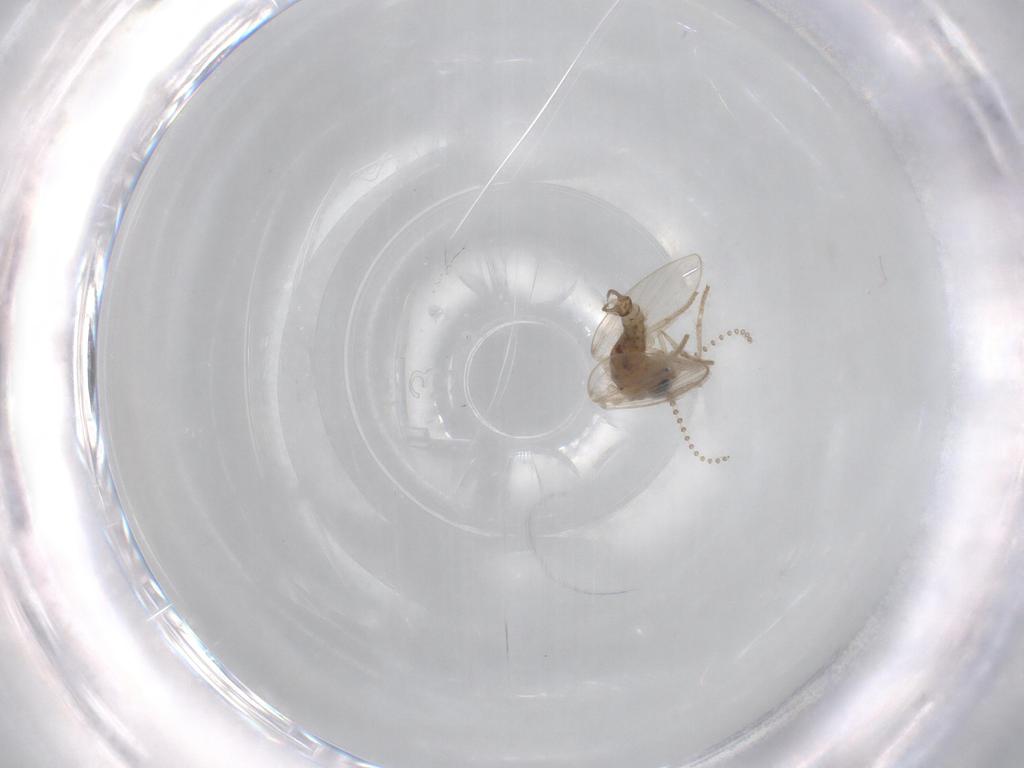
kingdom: Animalia
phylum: Arthropoda
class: Insecta
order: Diptera
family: Psychodidae
